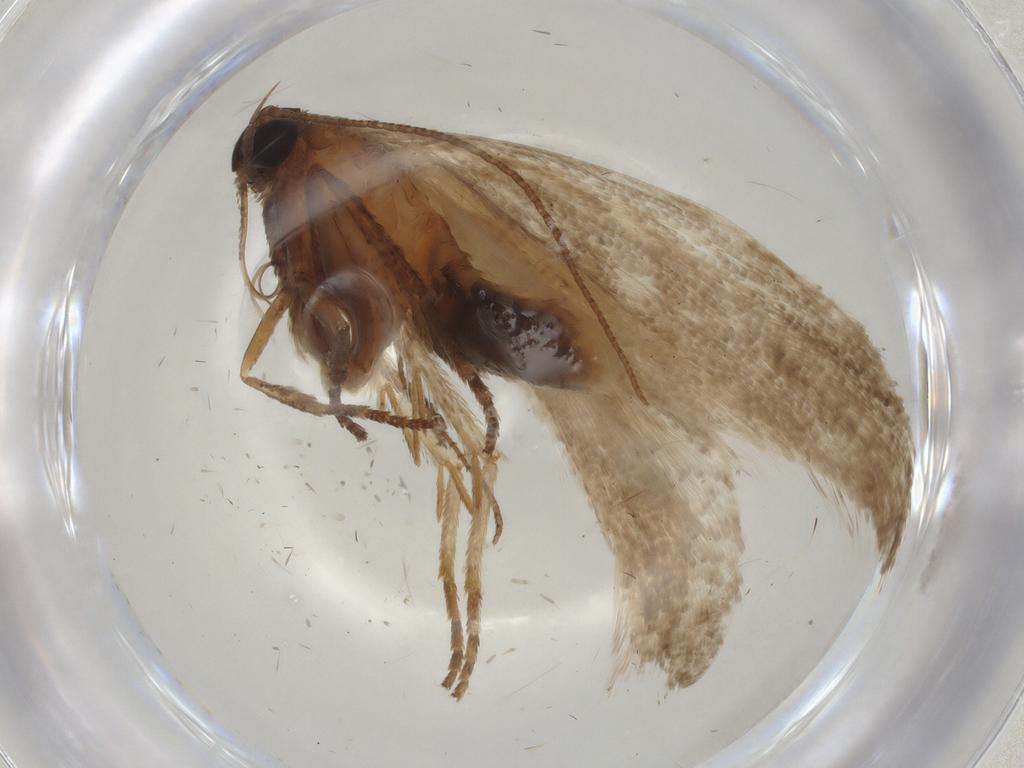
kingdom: Animalia
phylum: Arthropoda
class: Insecta
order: Lepidoptera
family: Cosmopterigidae
